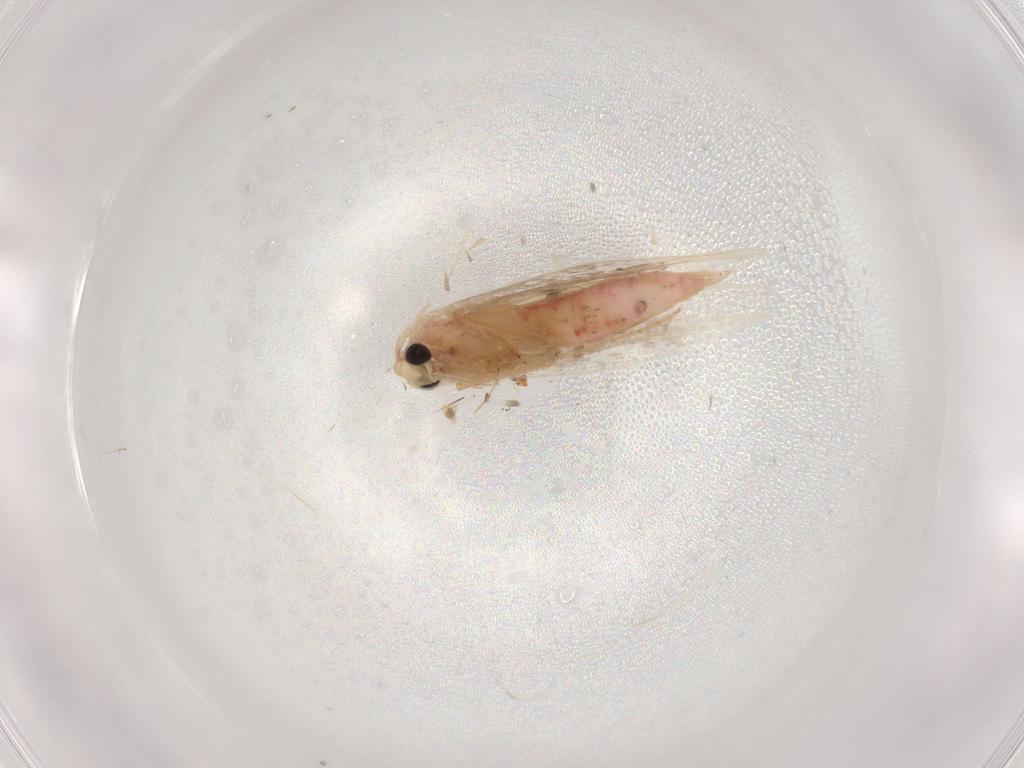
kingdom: Animalia
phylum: Arthropoda
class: Insecta
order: Lepidoptera
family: Bedelliidae
